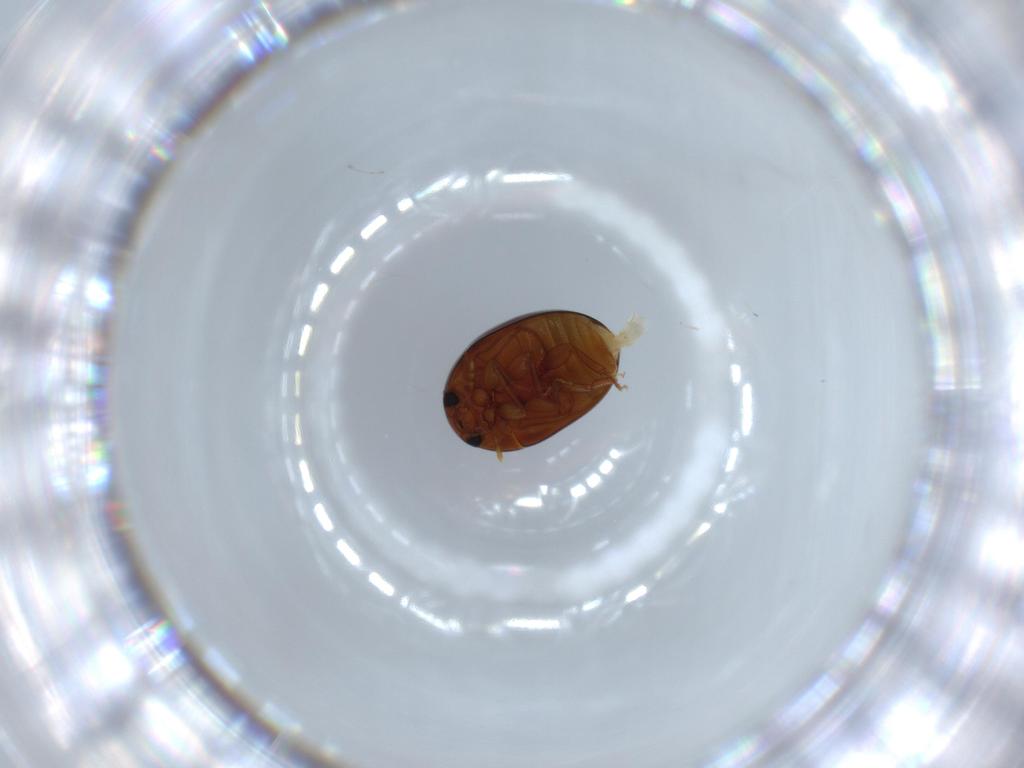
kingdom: Animalia
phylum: Arthropoda
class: Insecta
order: Coleoptera
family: Phalacridae
